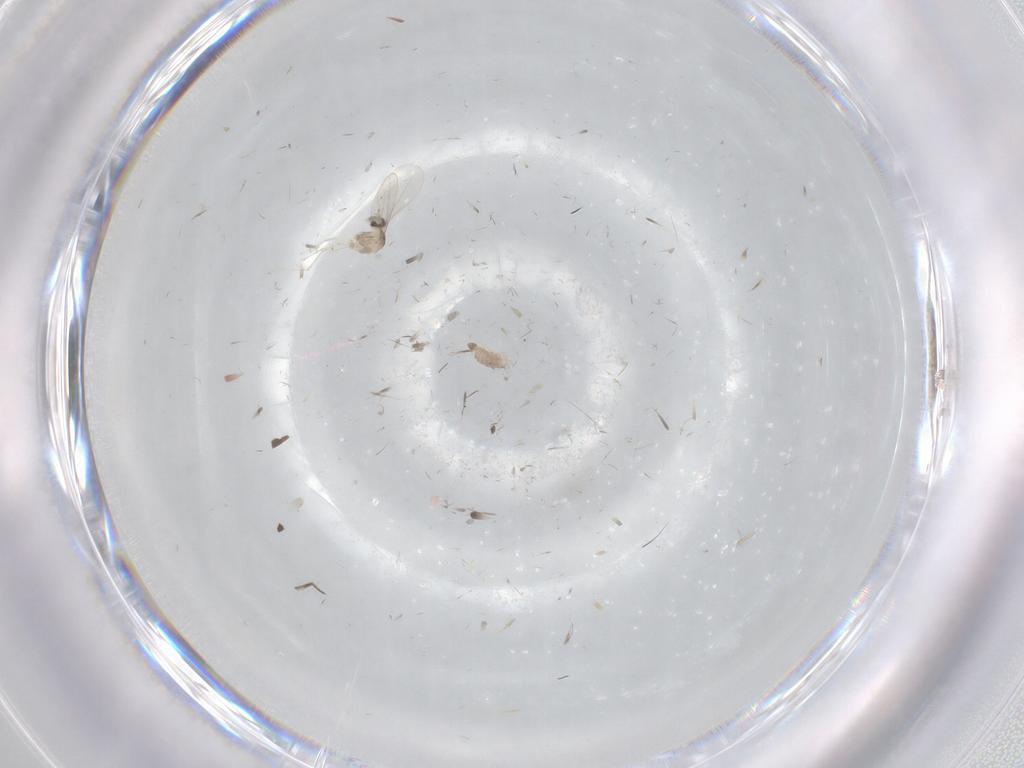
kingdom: Animalia
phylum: Arthropoda
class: Insecta
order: Diptera
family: Cecidomyiidae
